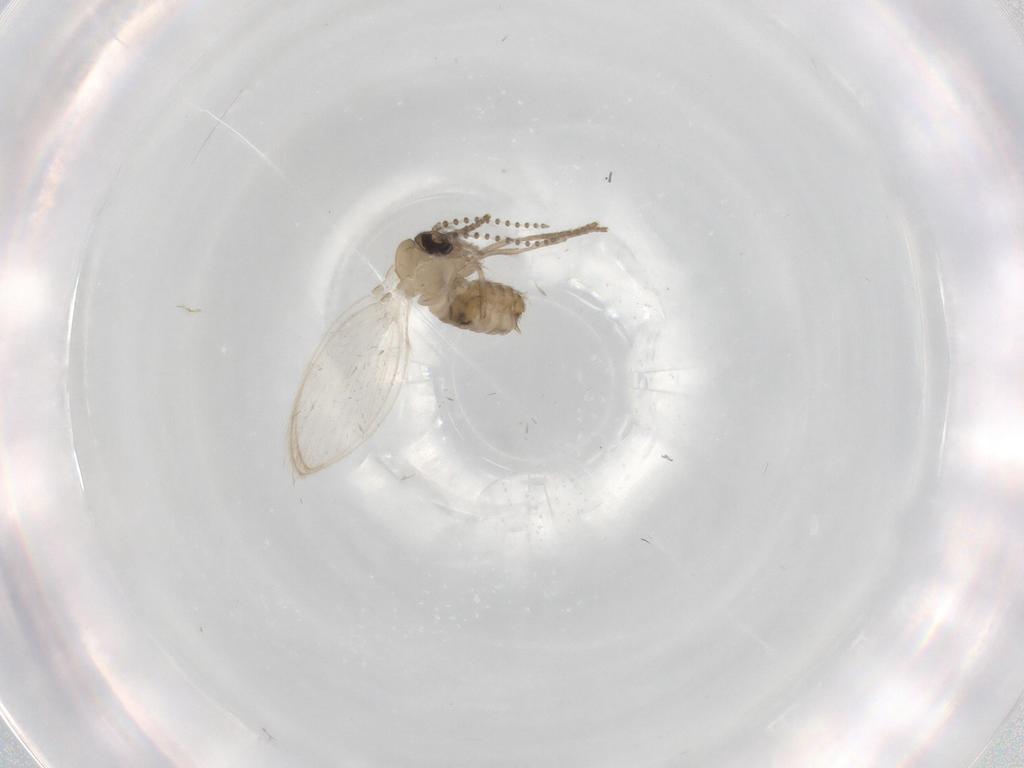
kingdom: Animalia
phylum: Arthropoda
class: Insecta
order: Diptera
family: Psychodidae
